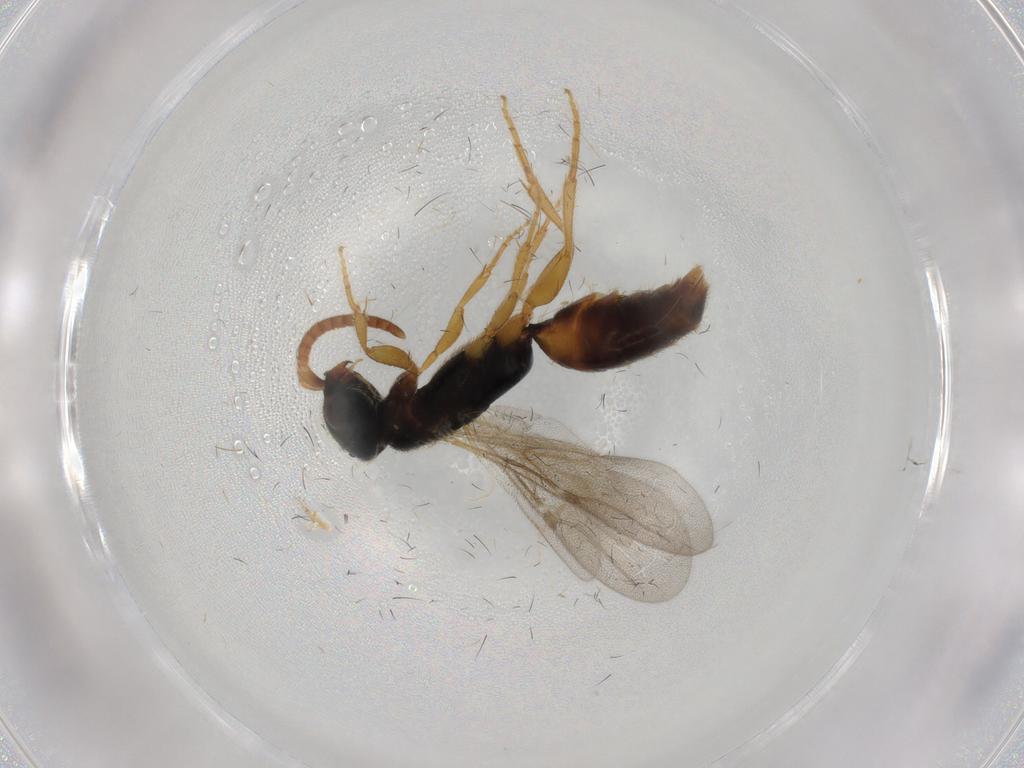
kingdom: Animalia
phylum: Arthropoda
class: Insecta
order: Hymenoptera
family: Bethylidae
